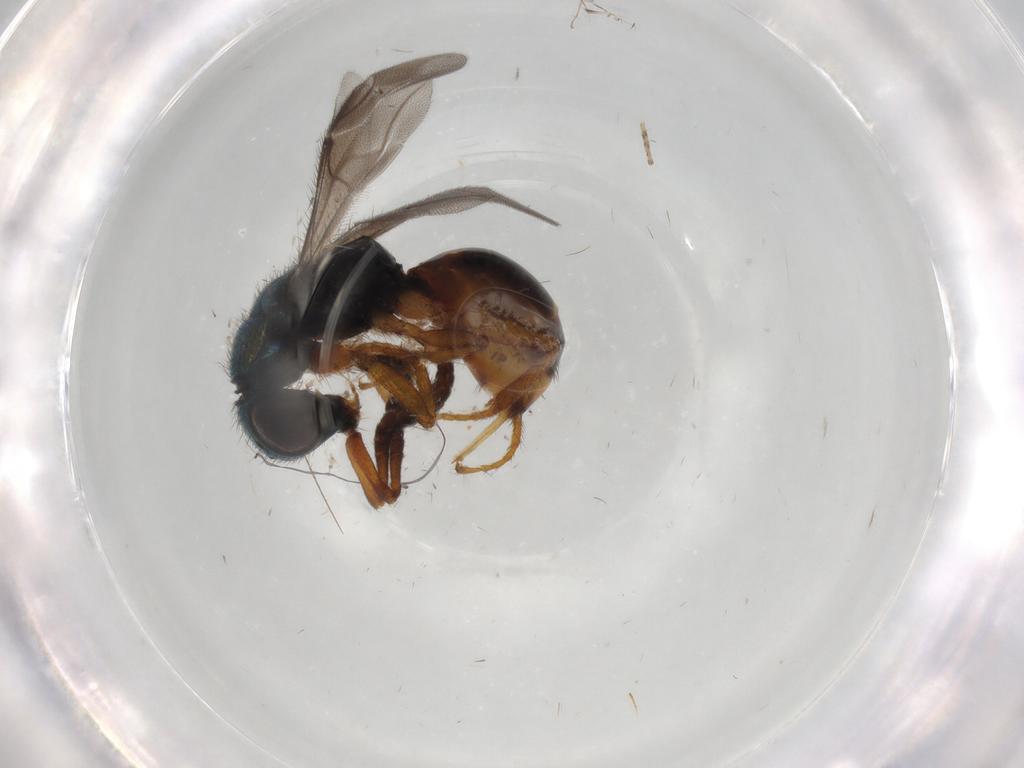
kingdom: Animalia
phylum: Arthropoda
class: Insecta
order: Hymenoptera
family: Chrysididae
